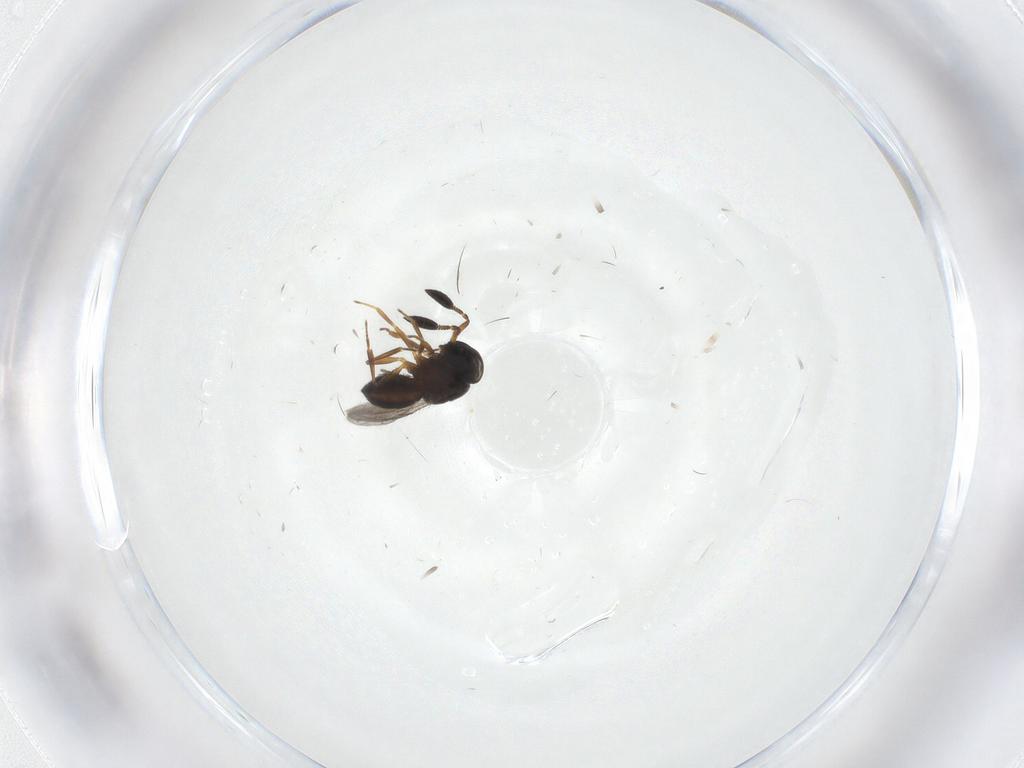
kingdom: Animalia
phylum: Arthropoda
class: Insecta
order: Hymenoptera
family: Scelionidae
